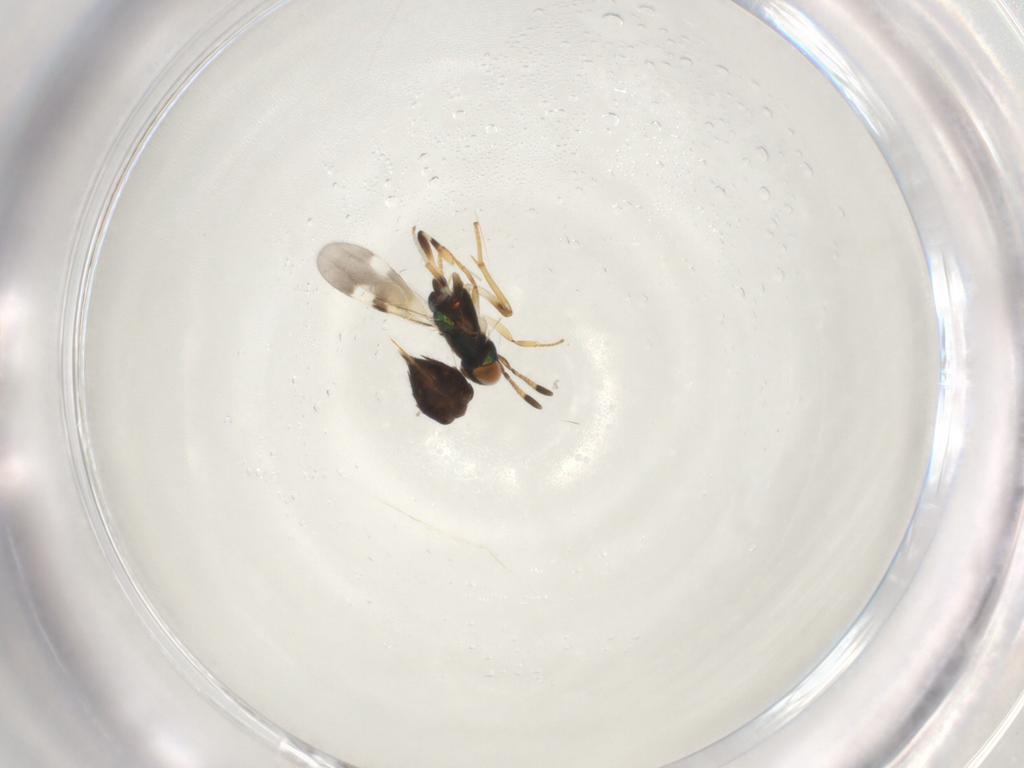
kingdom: Animalia
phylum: Arthropoda
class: Insecta
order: Hymenoptera
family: Encyrtidae
